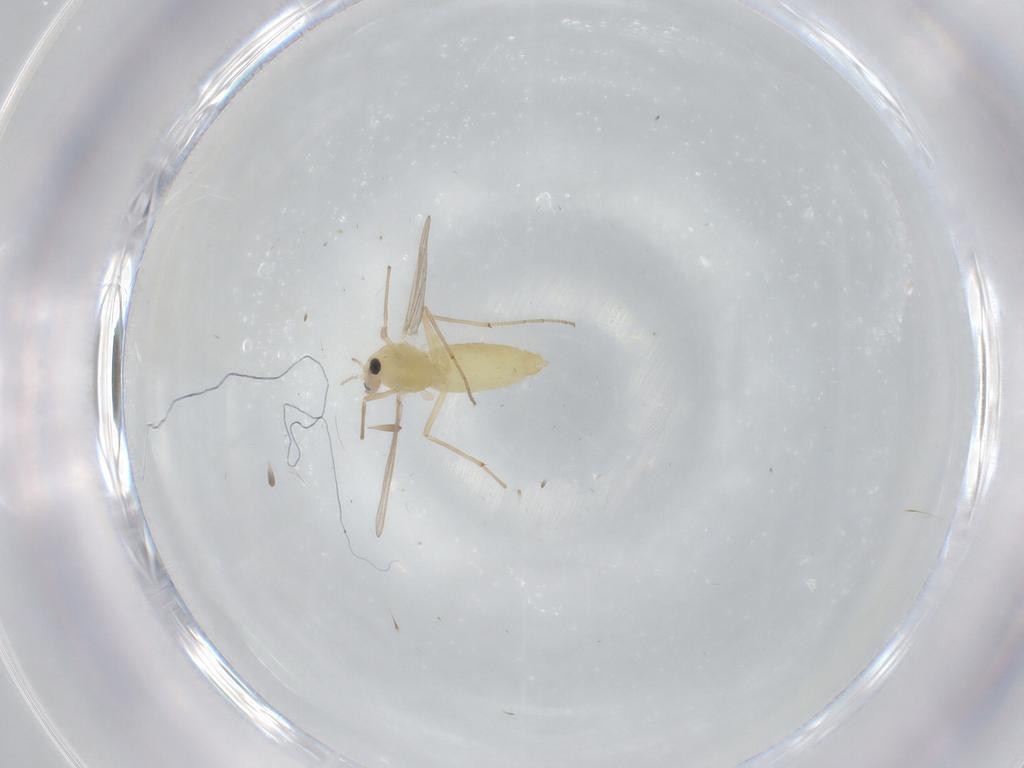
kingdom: Animalia
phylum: Arthropoda
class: Insecta
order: Diptera
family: Chironomidae
